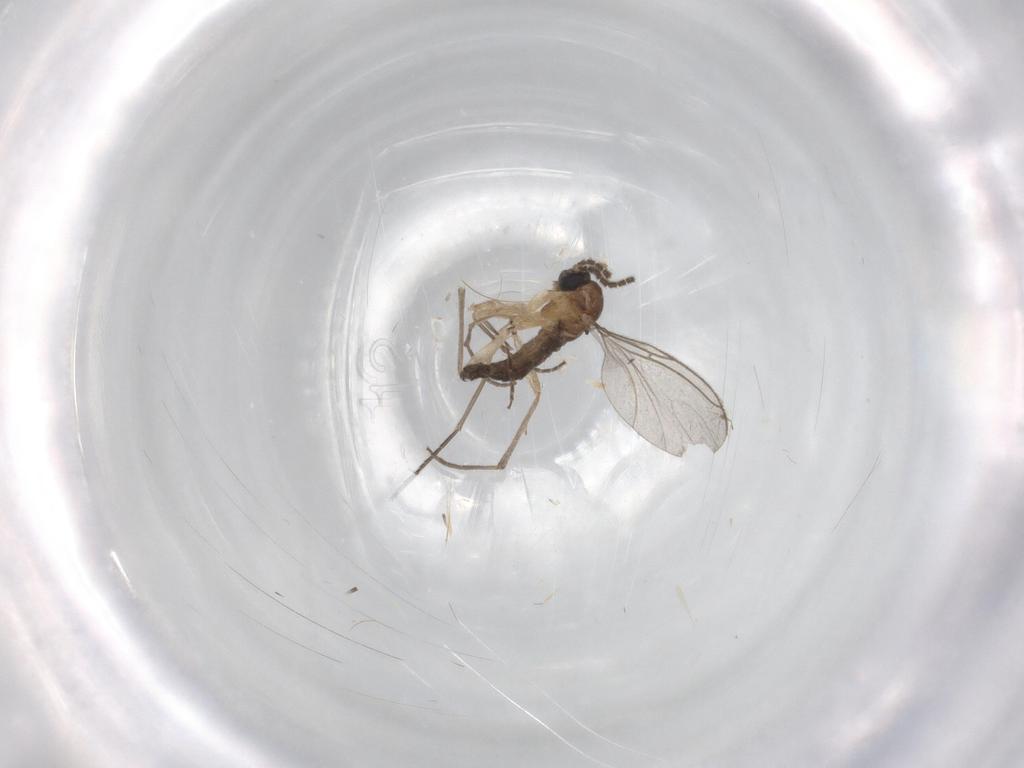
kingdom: Animalia
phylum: Arthropoda
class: Insecta
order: Diptera
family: Sciaridae
